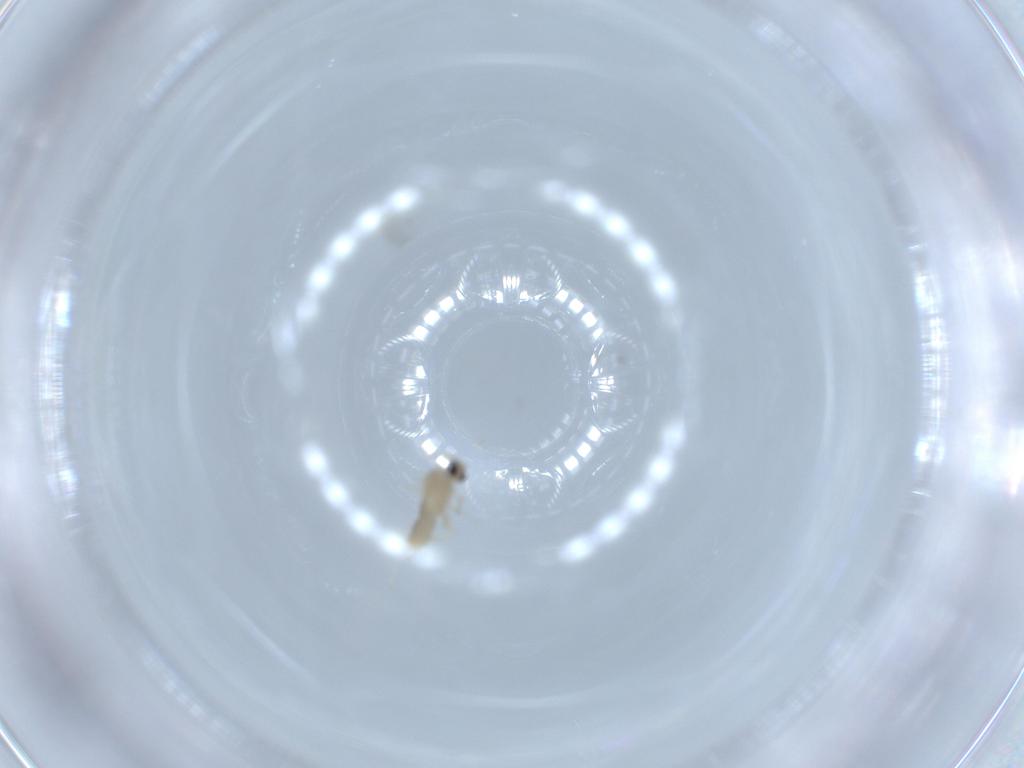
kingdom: Animalia
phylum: Arthropoda
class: Insecta
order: Diptera
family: Cecidomyiidae
